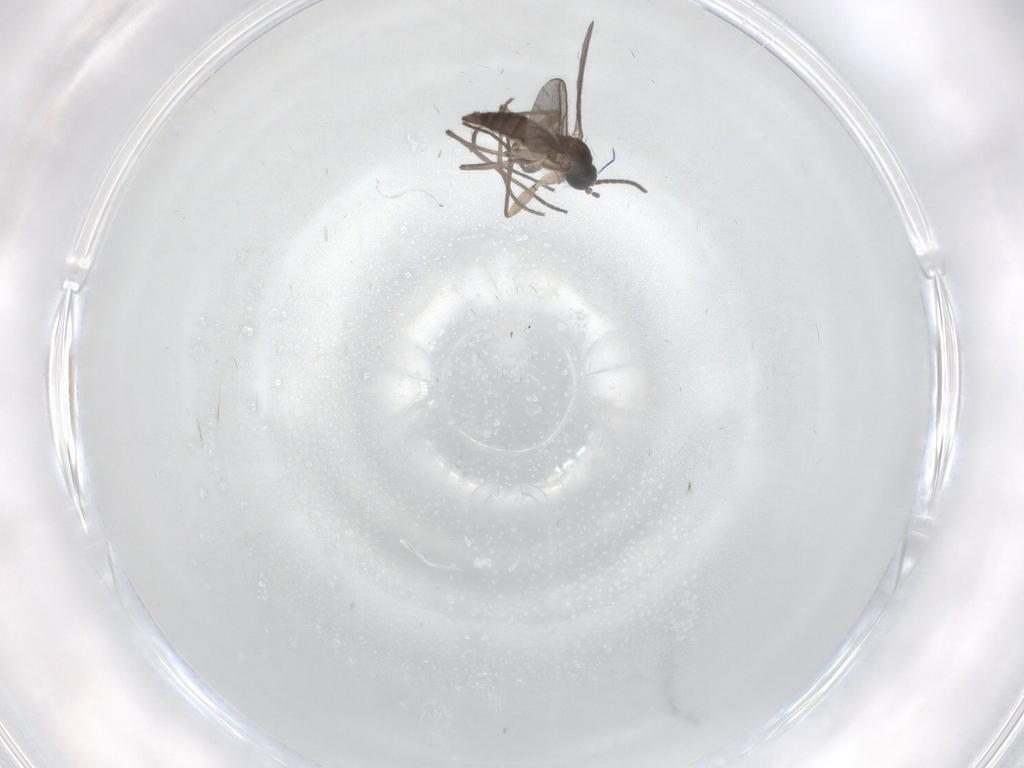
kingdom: Animalia
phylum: Arthropoda
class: Insecta
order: Diptera
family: Sciaridae
